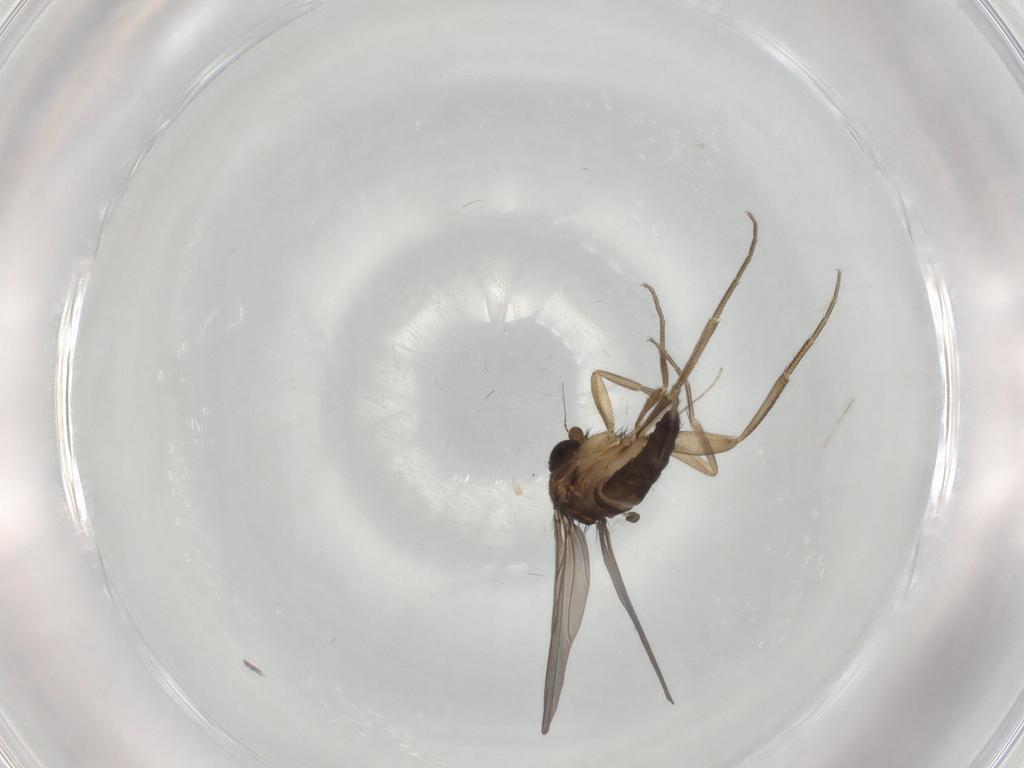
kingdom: Animalia
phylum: Arthropoda
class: Insecta
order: Diptera
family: Phoridae
